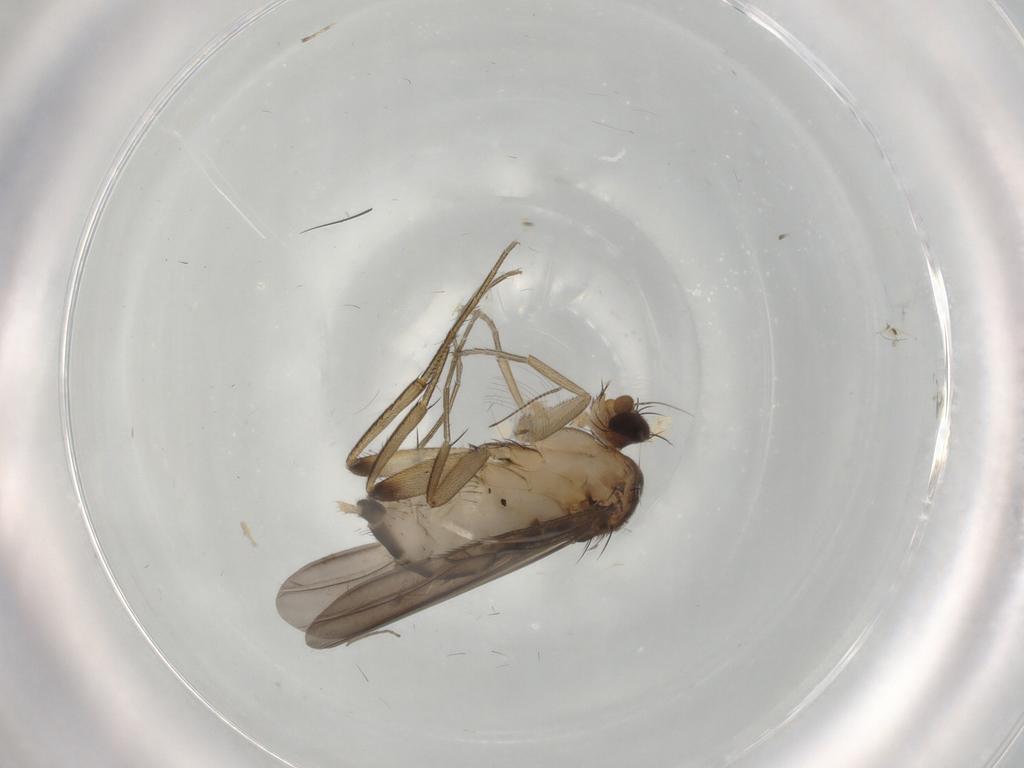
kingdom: Animalia
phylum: Arthropoda
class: Insecta
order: Diptera
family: Phoridae
